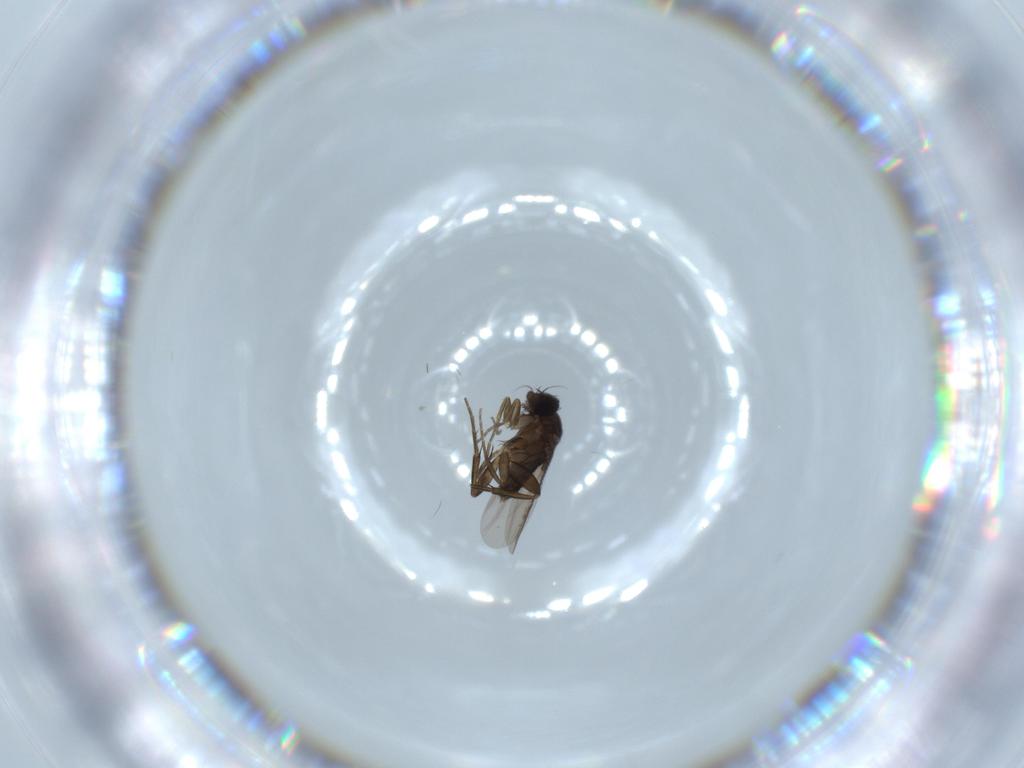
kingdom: Animalia
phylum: Arthropoda
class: Insecta
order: Diptera
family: Phoridae
